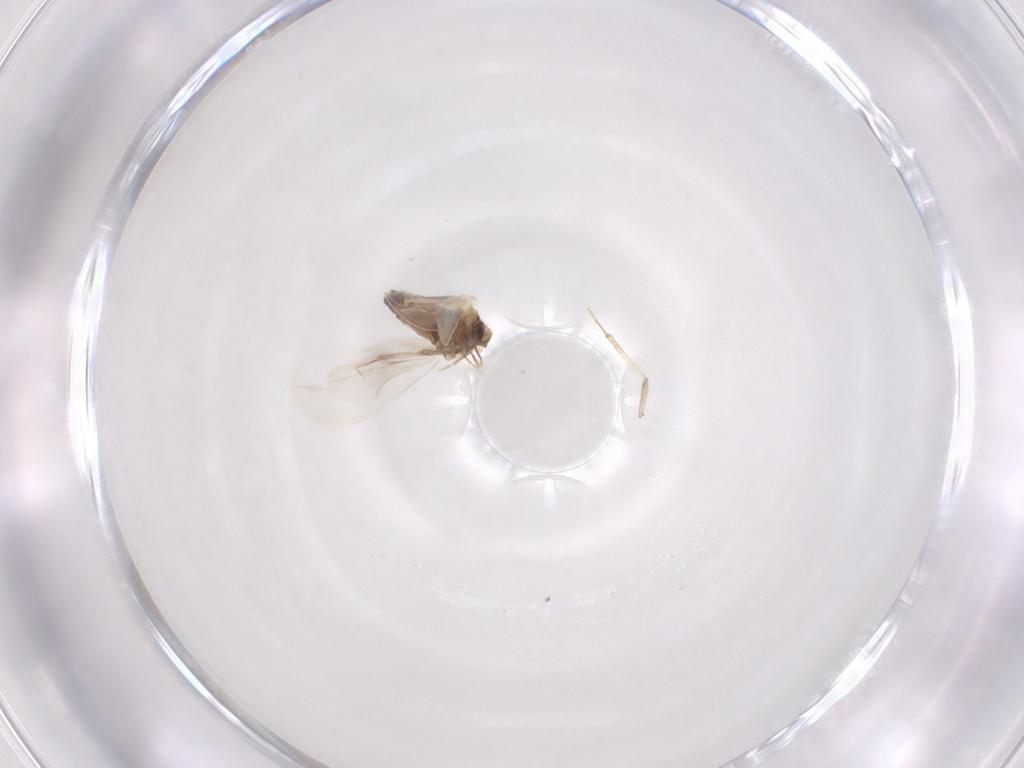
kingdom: Animalia
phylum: Arthropoda
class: Insecta
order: Hemiptera
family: Aleyrodidae
